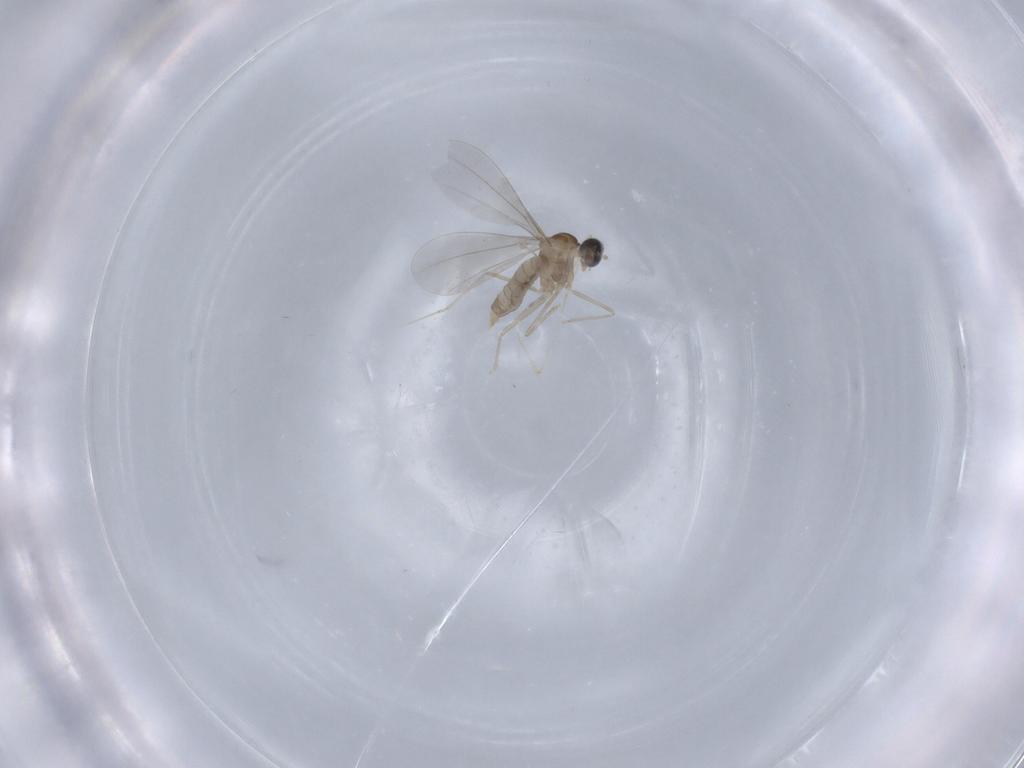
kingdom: Animalia
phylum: Arthropoda
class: Insecta
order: Diptera
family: Cecidomyiidae
